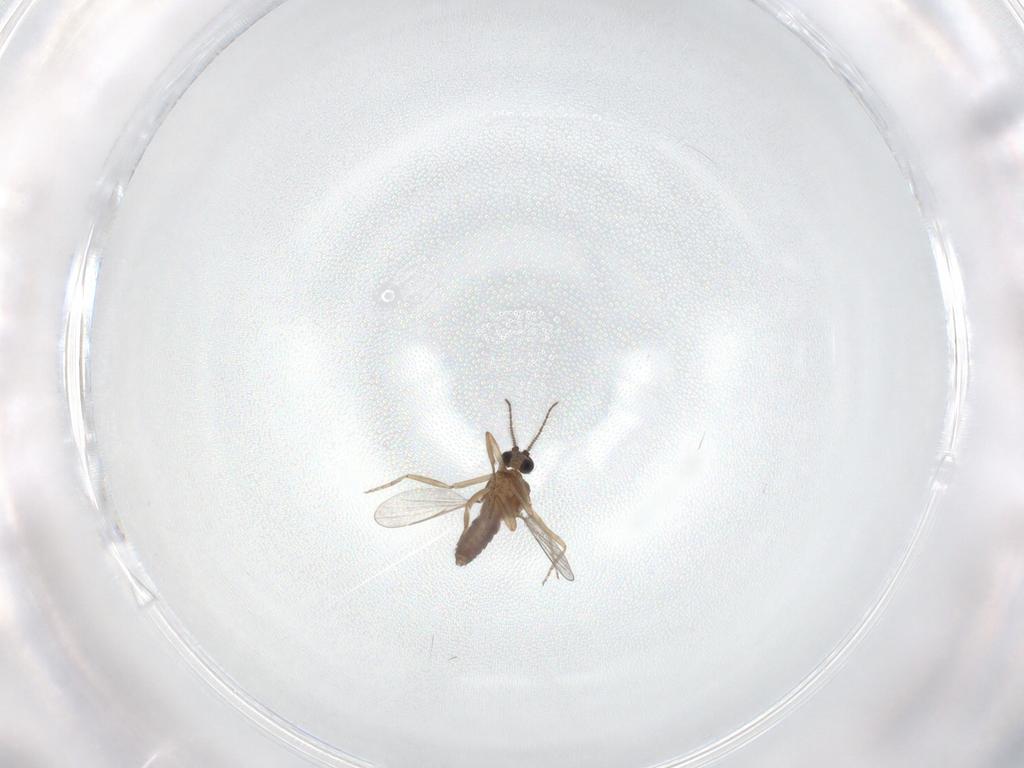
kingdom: Animalia
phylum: Arthropoda
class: Insecta
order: Diptera
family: Ceratopogonidae
